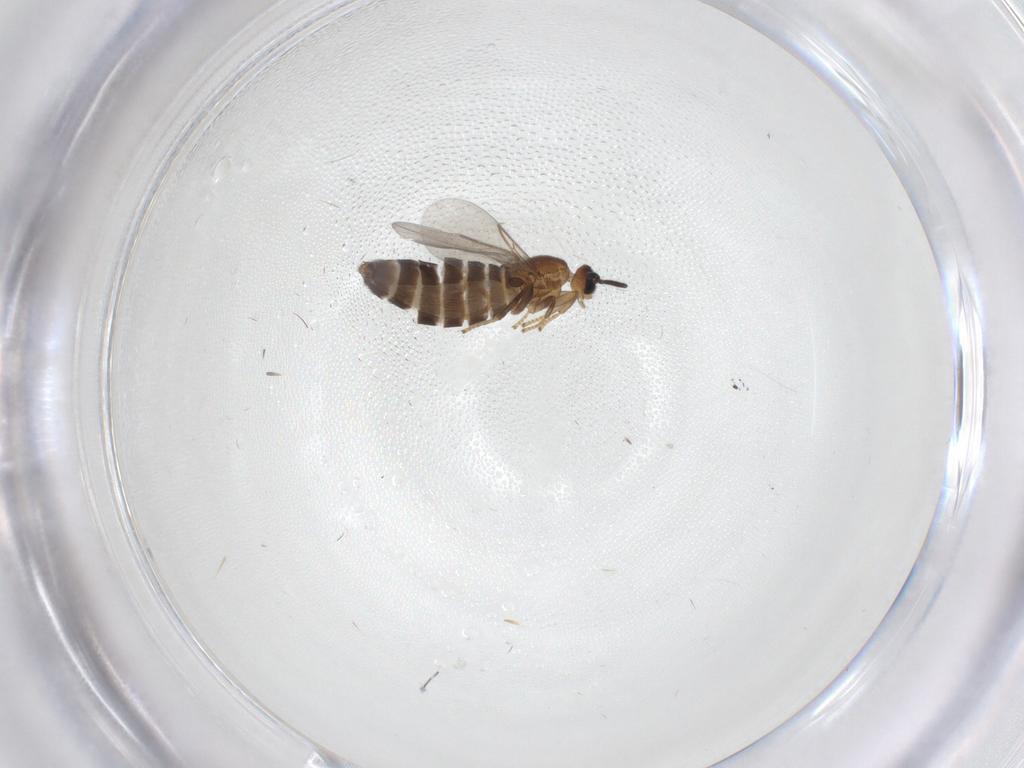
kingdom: Animalia
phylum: Arthropoda
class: Insecta
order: Diptera
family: Scatopsidae
